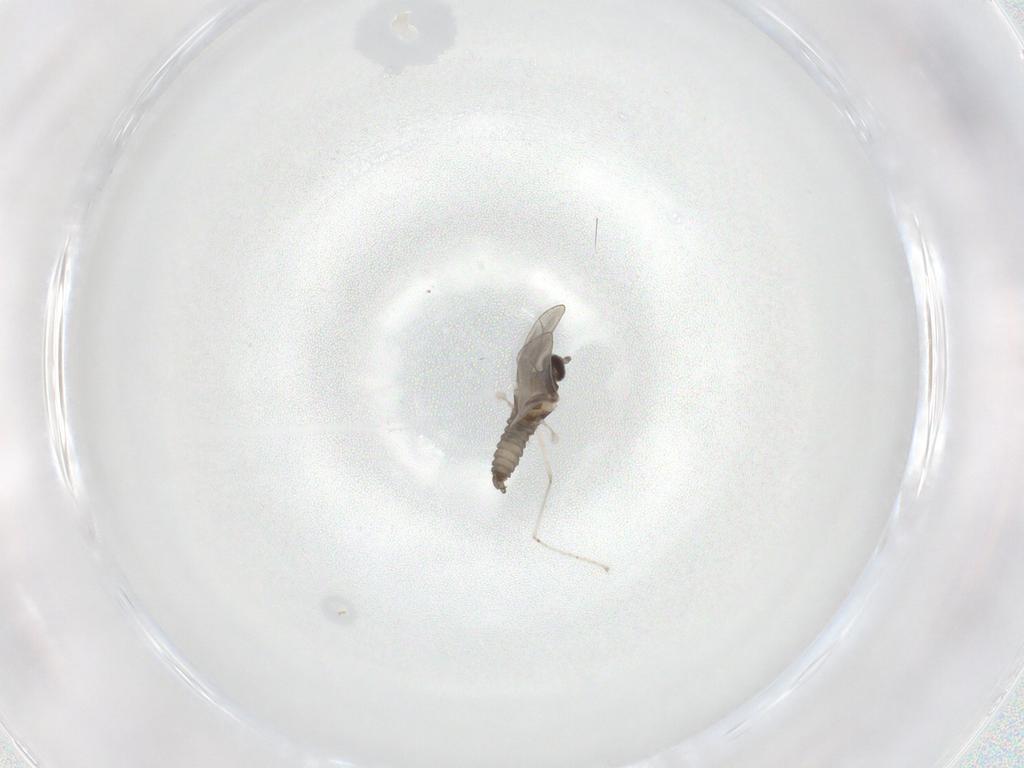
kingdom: Animalia
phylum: Arthropoda
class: Insecta
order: Diptera
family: Cecidomyiidae
